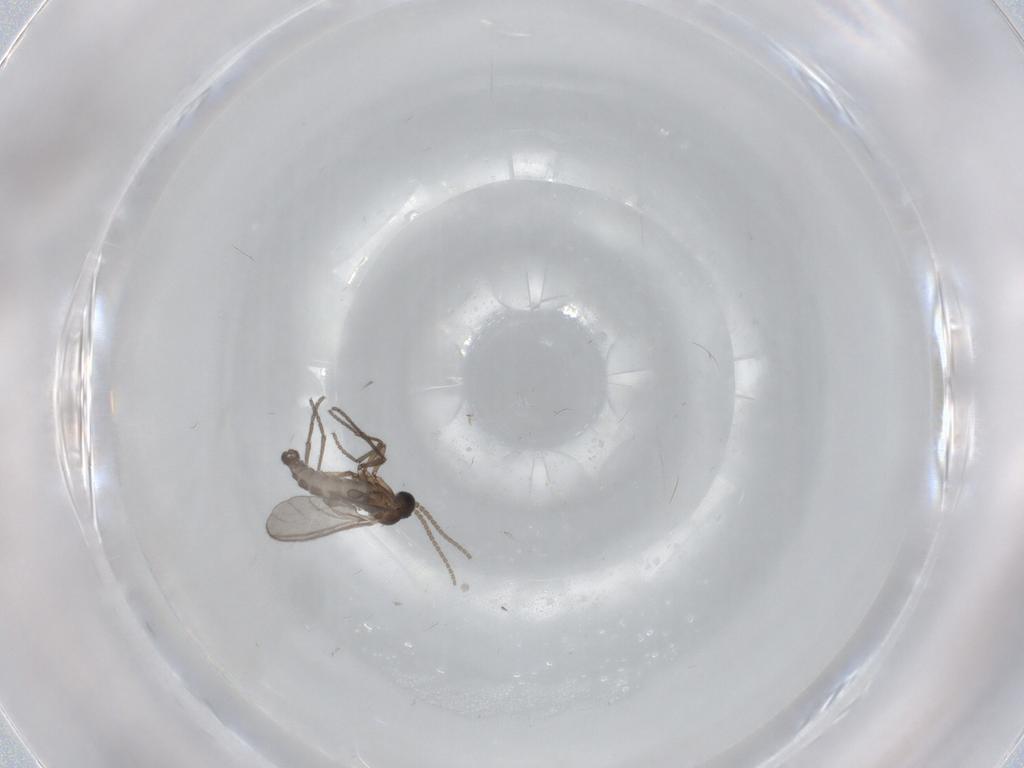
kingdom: Animalia
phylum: Arthropoda
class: Insecta
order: Diptera
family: Sciaridae
